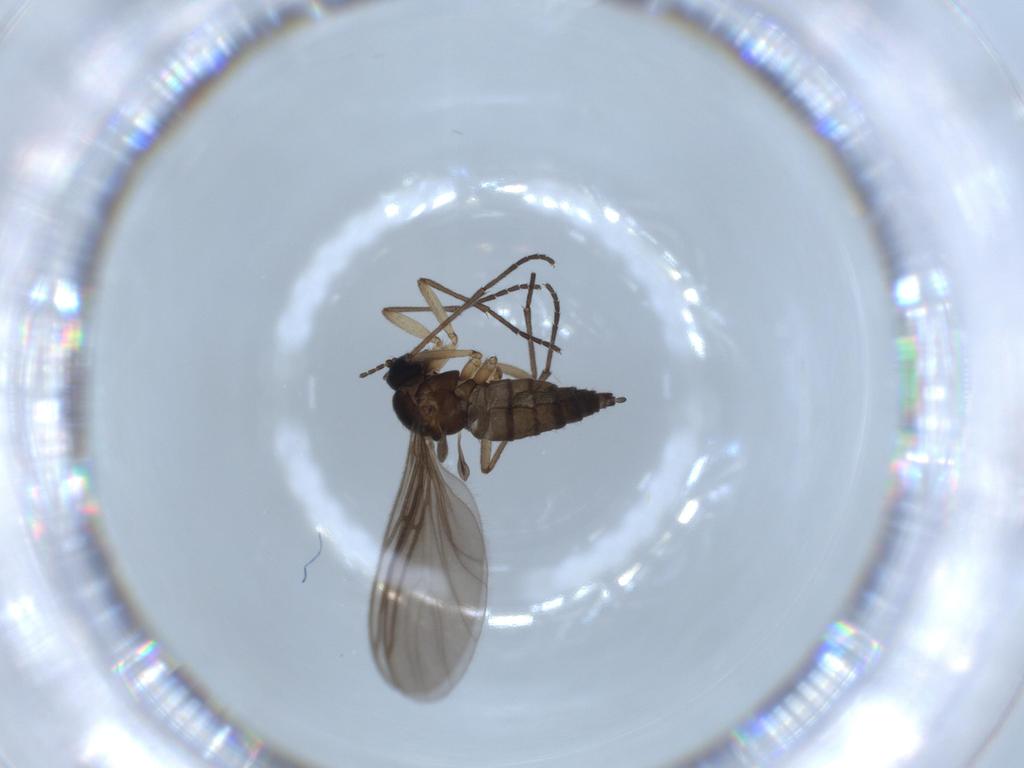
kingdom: Animalia
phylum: Arthropoda
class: Insecta
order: Diptera
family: Sciaridae
